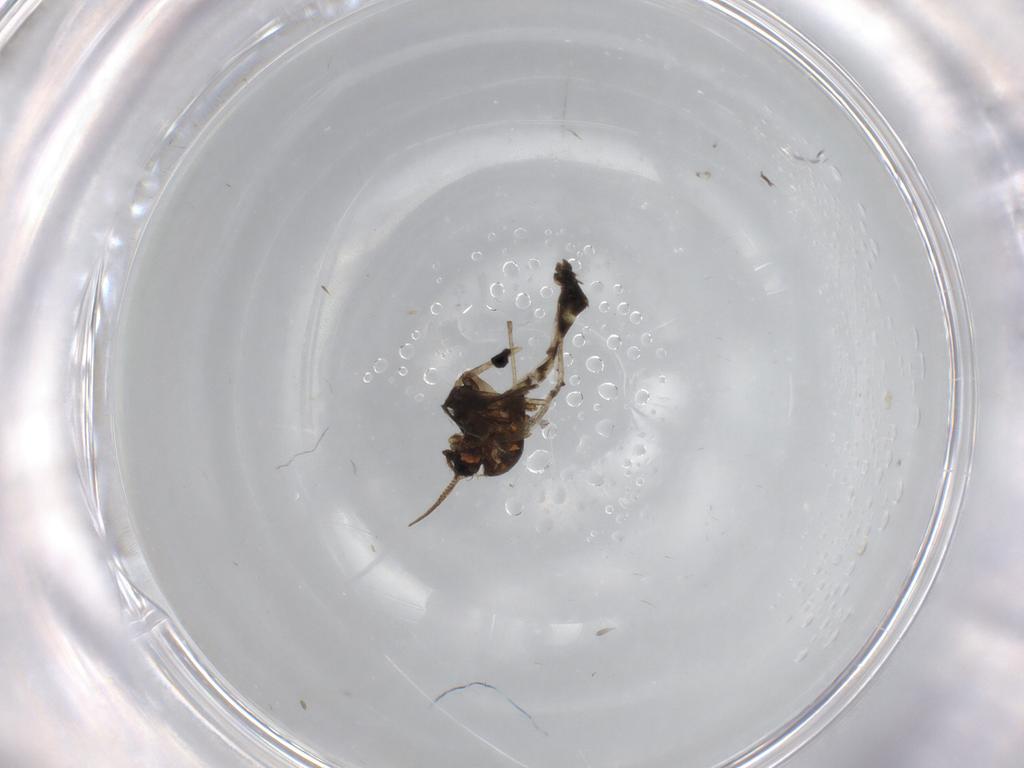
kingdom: Animalia
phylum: Arthropoda
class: Insecta
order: Diptera
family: Chironomidae
